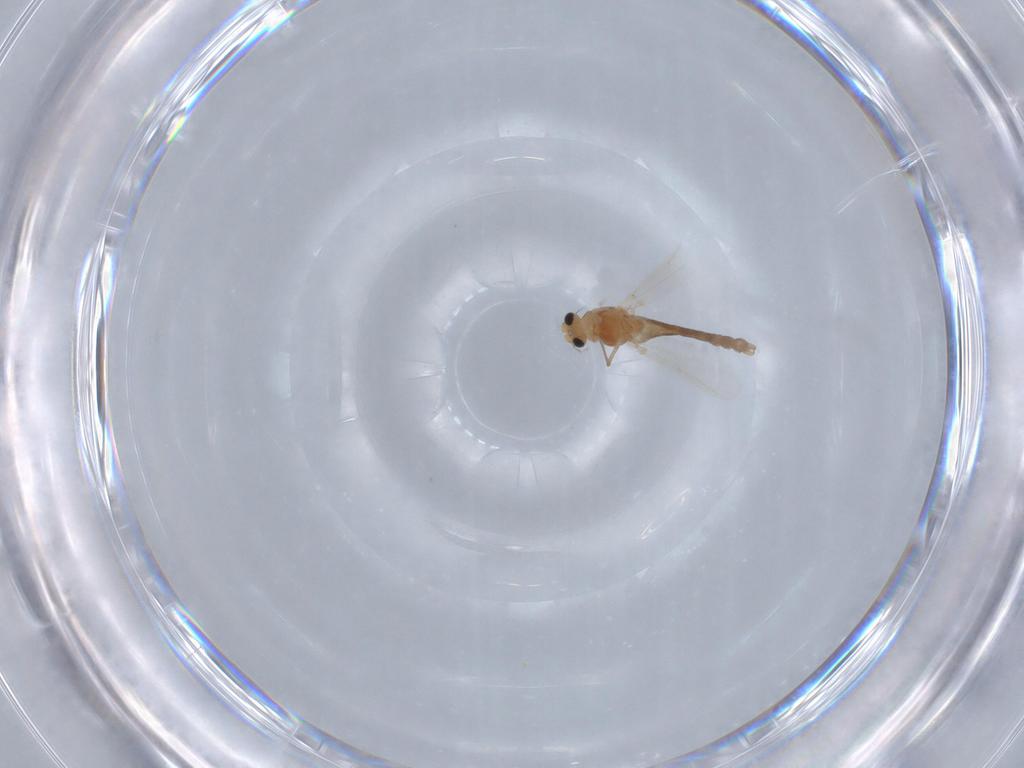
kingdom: Animalia
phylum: Arthropoda
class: Insecta
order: Diptera
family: Chironomidae
